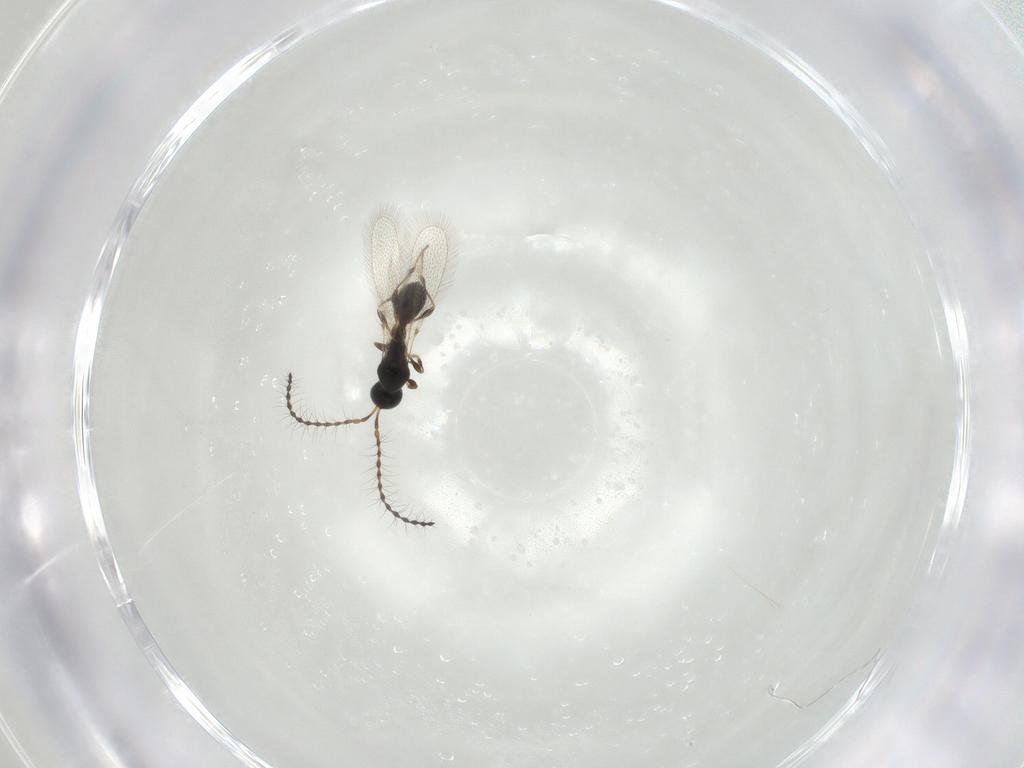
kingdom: Animalia
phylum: Arthropoda
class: Insecta
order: Hymenoptera
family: Diapriidae
